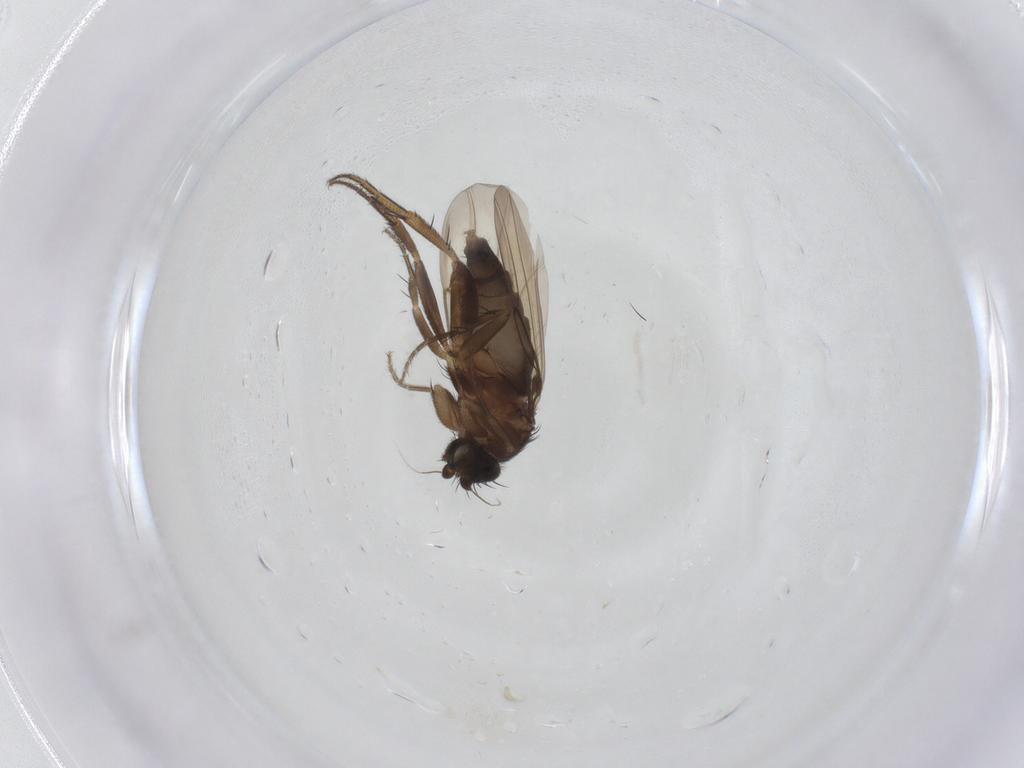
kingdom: Animalia
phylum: Arthropoda
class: Insecta
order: Diptera
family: Phoridae
